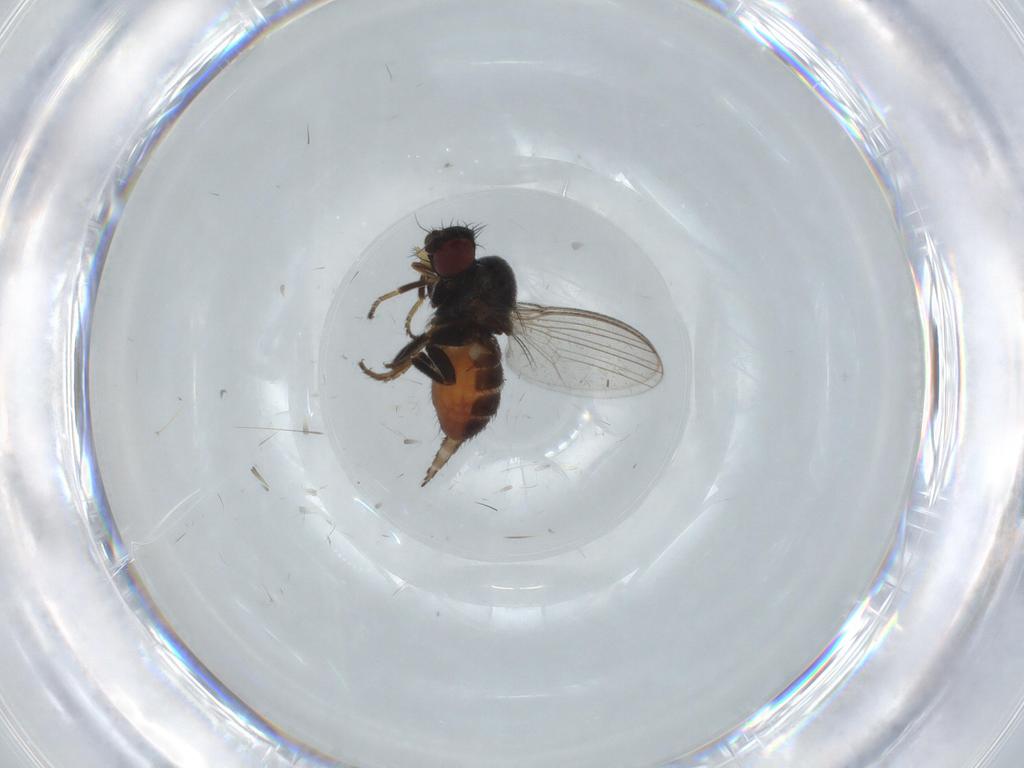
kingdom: Animalia
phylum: Arthropoda
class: Insecta
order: Diptera
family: Milichiidae
